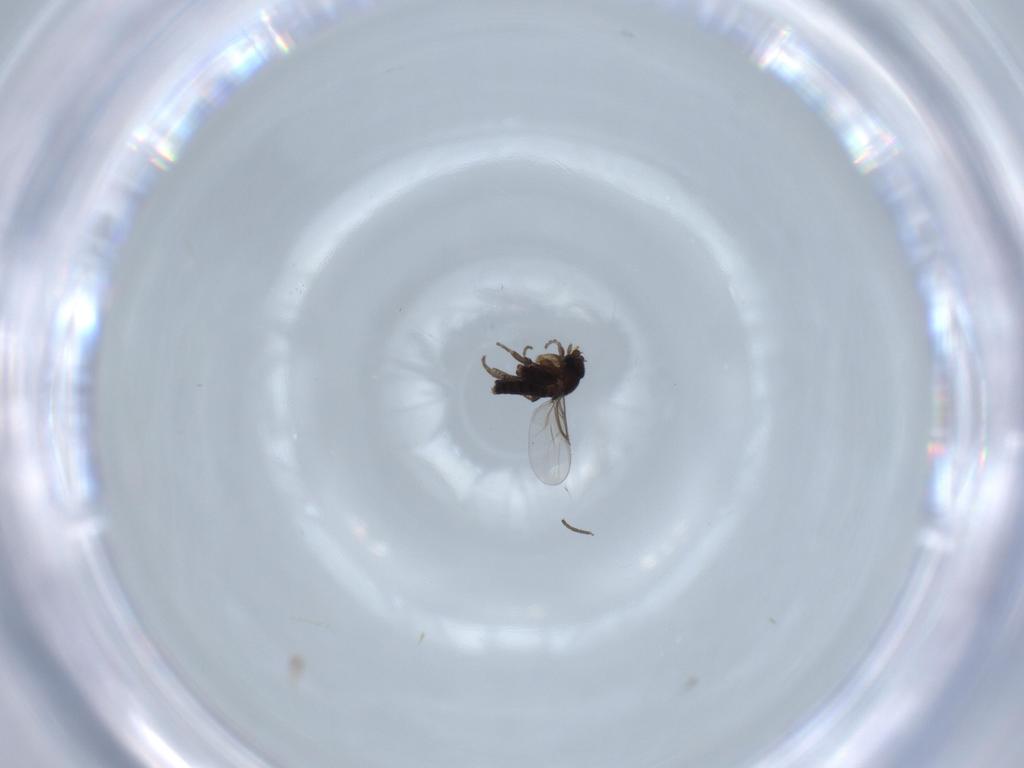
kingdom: Animalia
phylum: Arthropoda
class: Insecta
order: Diptera
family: Phoridae
